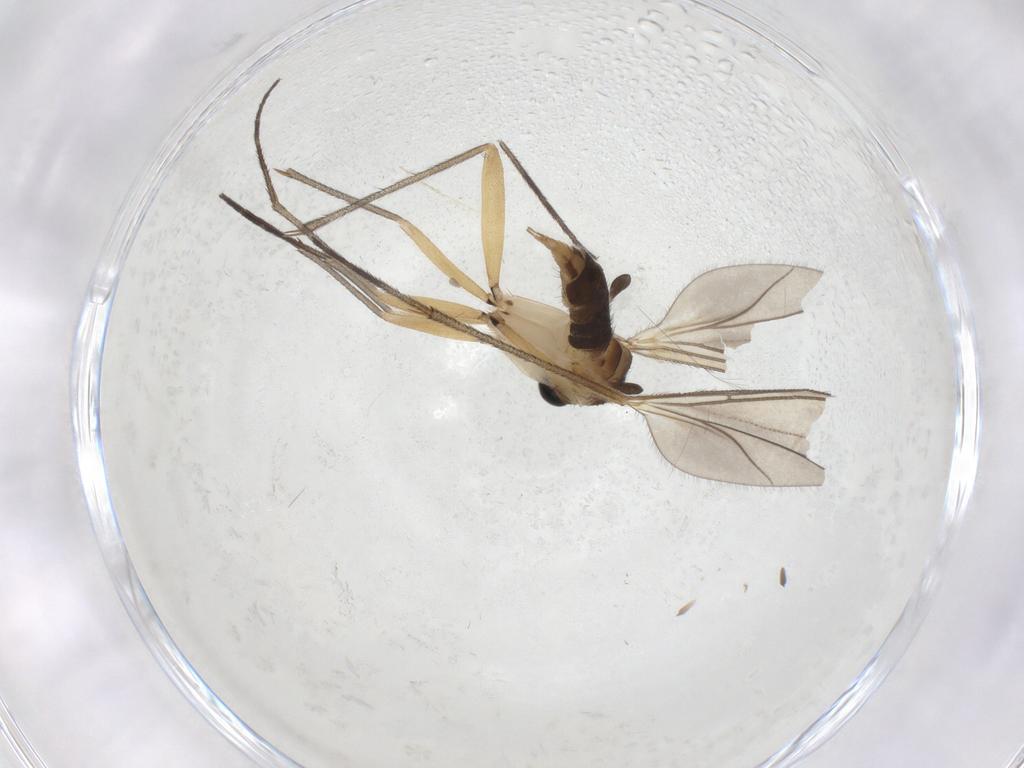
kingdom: Animalia
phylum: Arthropoda
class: Insecta
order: Diptera
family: Sciaridae
